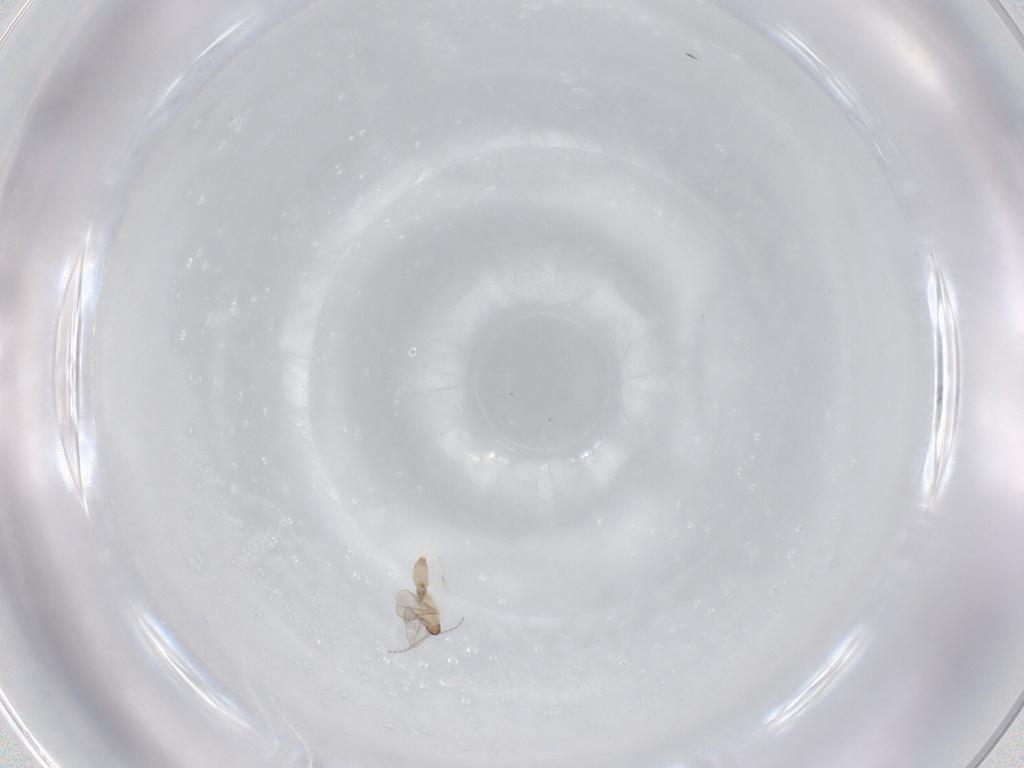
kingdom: Animalia
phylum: Arthropoda
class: Insecta
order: Diptera
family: Cecidomyiidae
